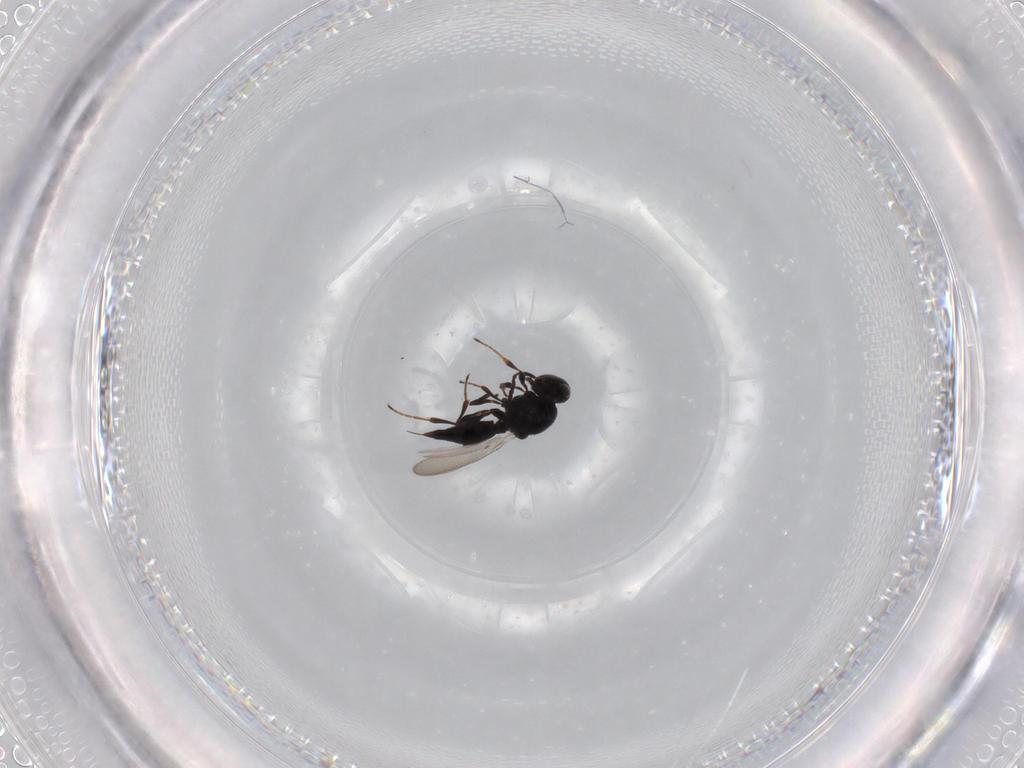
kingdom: Animalia
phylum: Arthropoda
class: Insecta
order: Hymenoptera
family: Platygastridae
